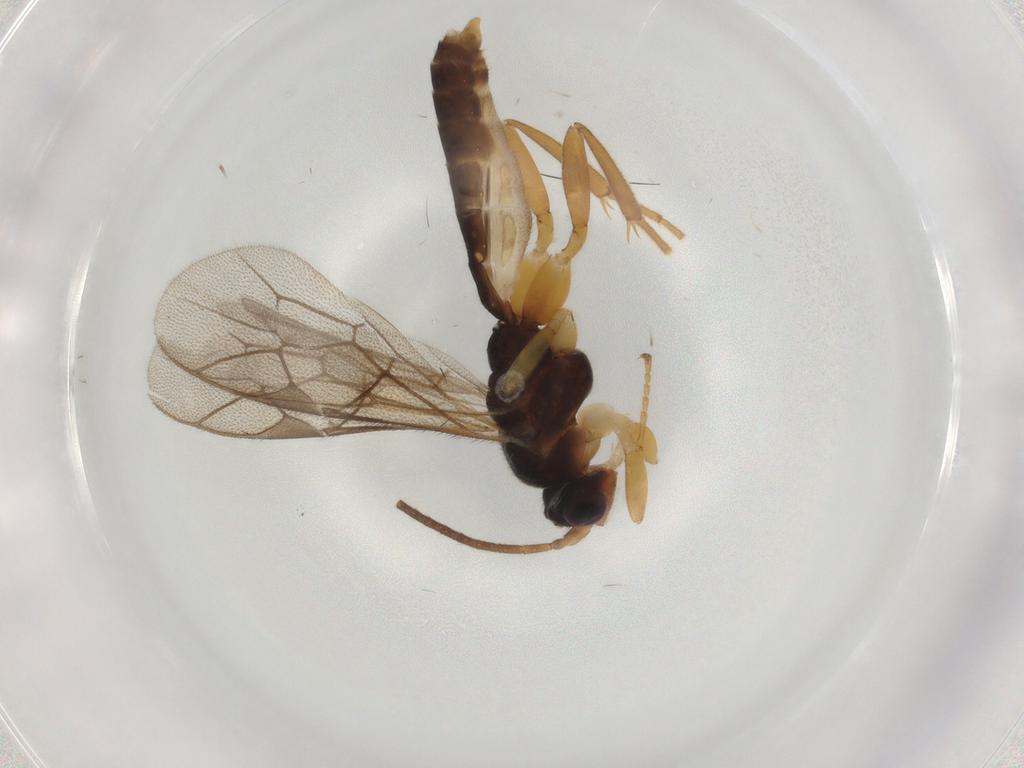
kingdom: Animalia
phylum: Arthropoda
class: Insecta
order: Hymenoptera
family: Ichneumonidae
